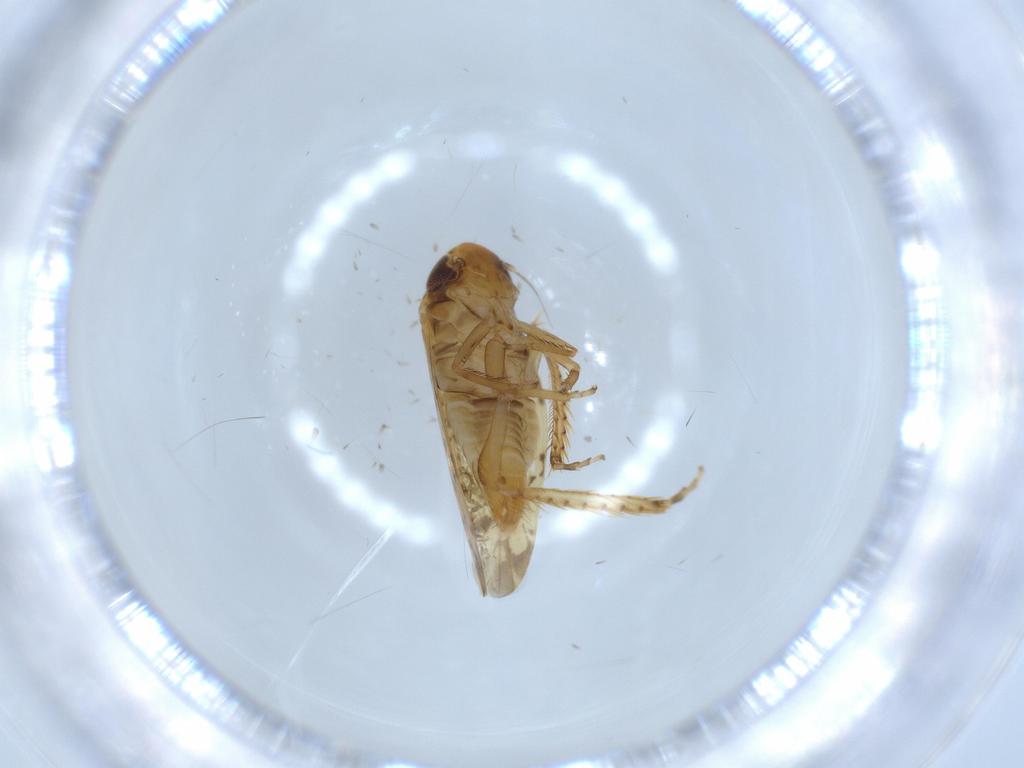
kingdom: Animalia
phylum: Arthropoda
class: Insecta
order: Hemiptera
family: Cicadellidae
